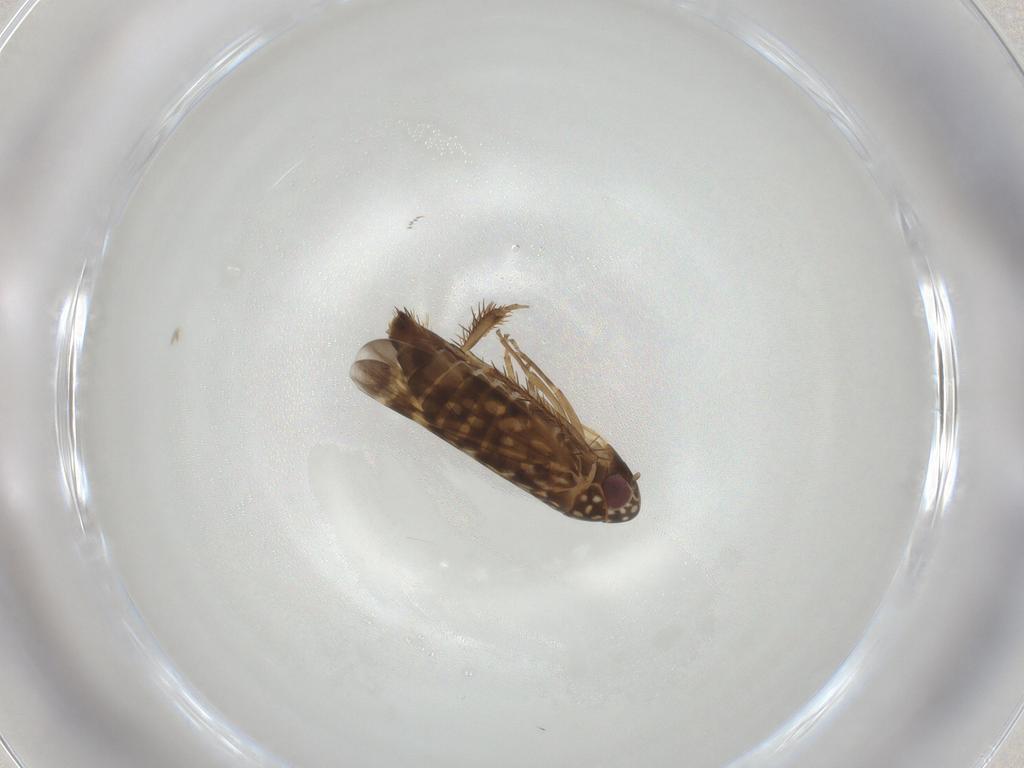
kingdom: Animalia
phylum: Arthropoda
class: Insecta
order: Hemiptera
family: Cicadellidae
